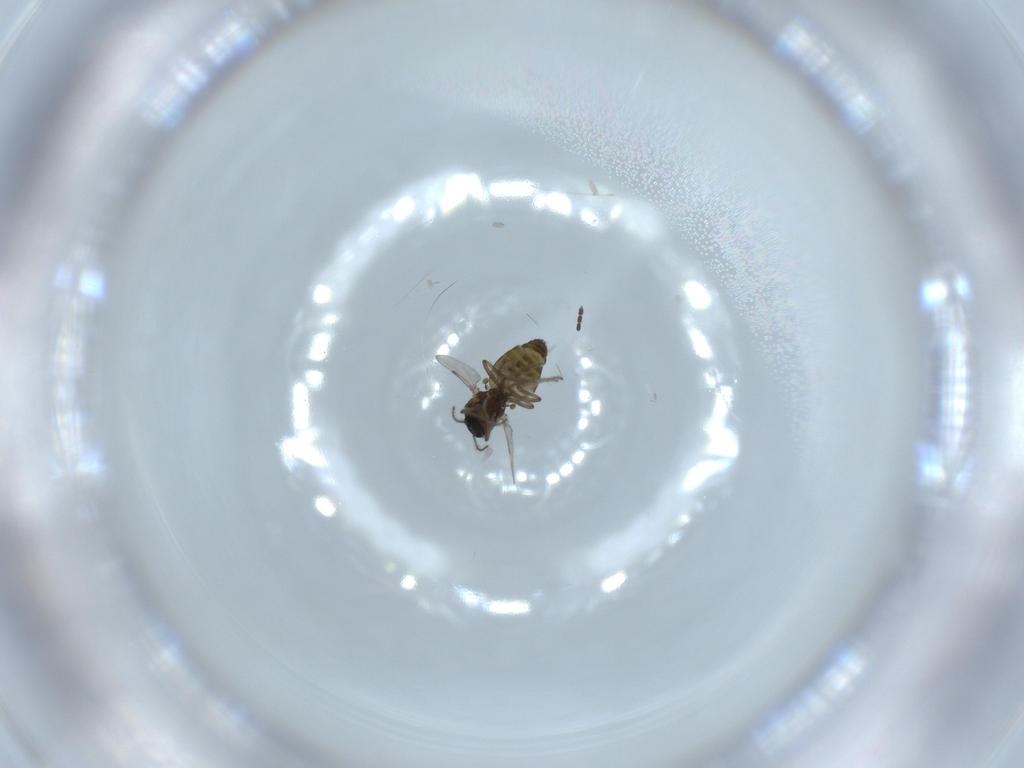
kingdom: Animalia
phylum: Arthropoda
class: Insecta
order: Diptera
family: Ceratopogonidae
